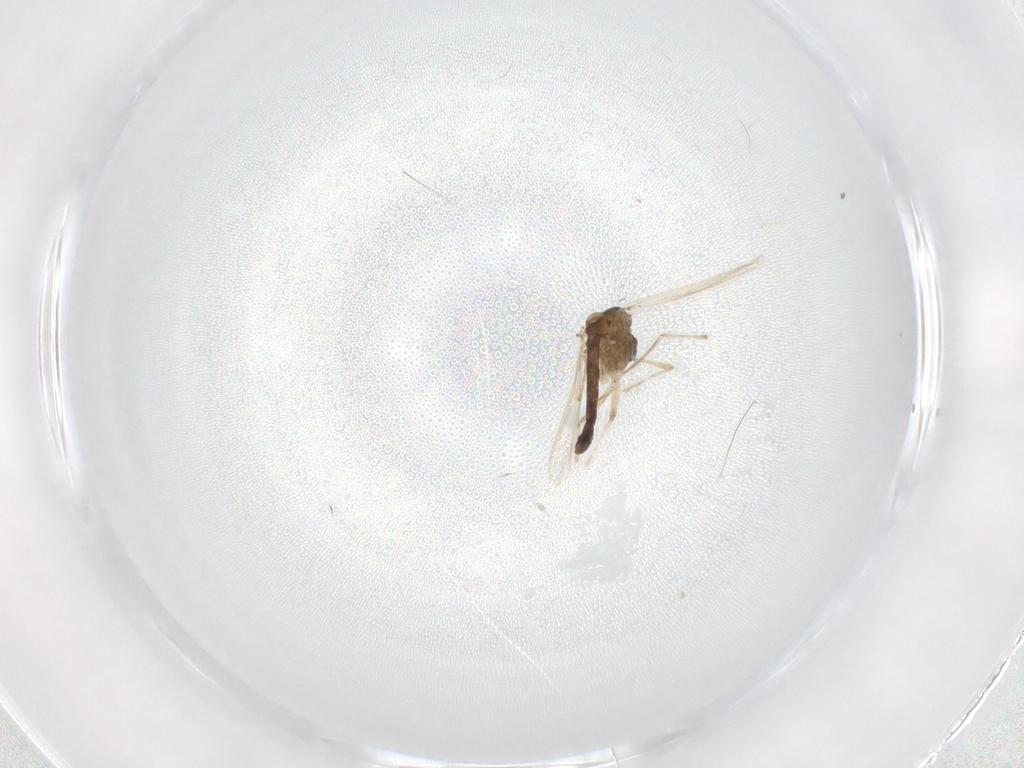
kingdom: Animalia
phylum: Arthropoda
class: Insecta
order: Diptera
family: Chironomidae
